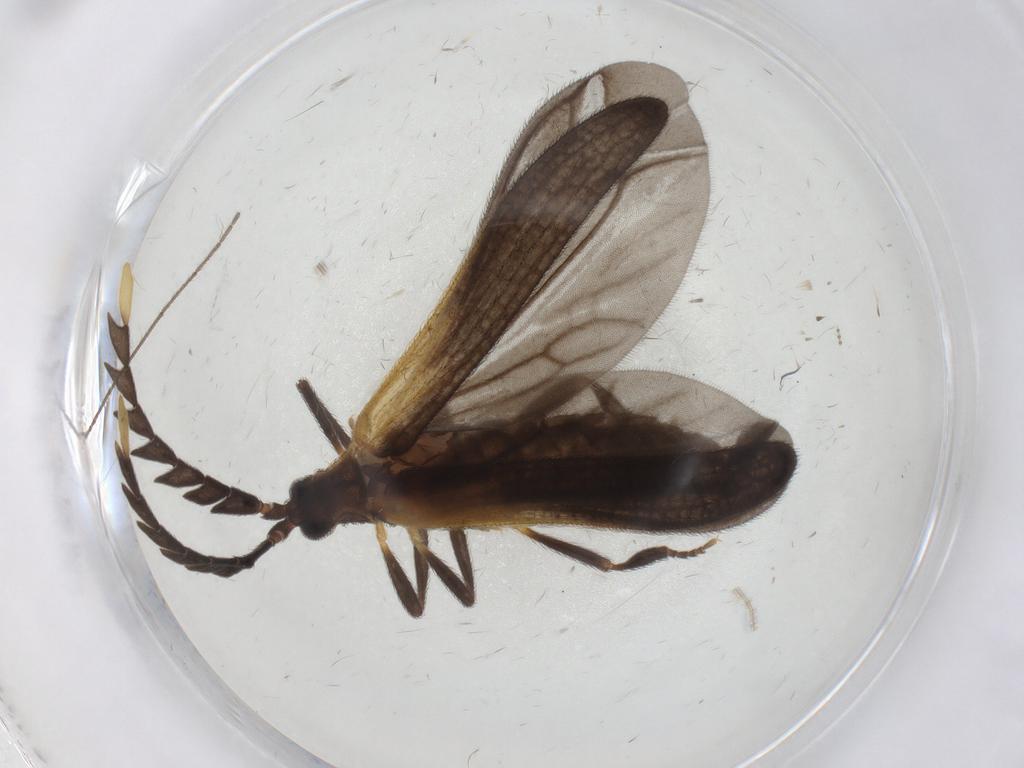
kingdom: Animalia
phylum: Arthropoda
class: Insecta
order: Coleoptera
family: Lycidae
